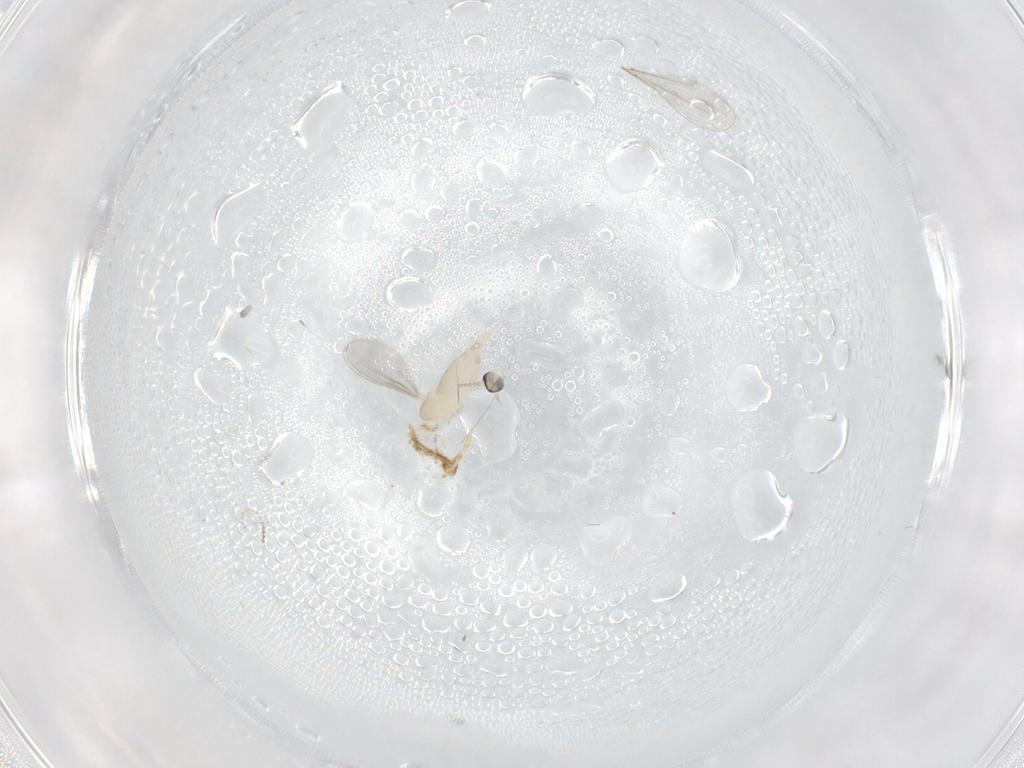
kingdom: Animalia
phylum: Arthropoda
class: Insecta
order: Diptera
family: Cecidomyiidae
